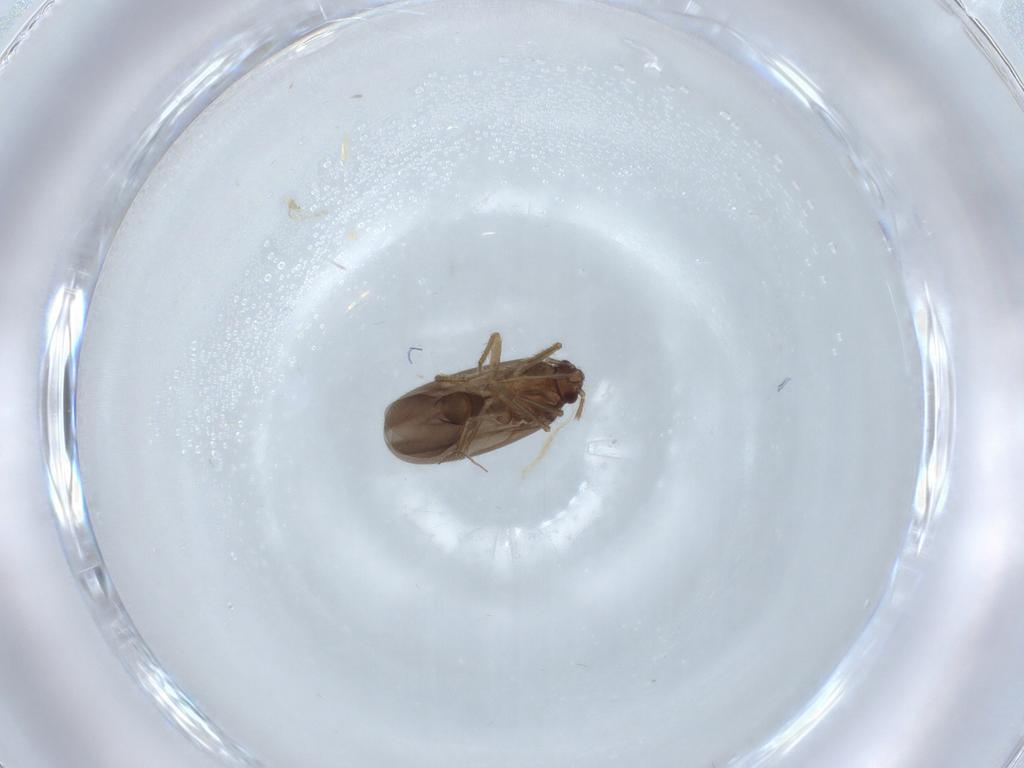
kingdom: Animalia
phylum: Arthropoda
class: Insecta
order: Hemiptera
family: Ceratocombidae
